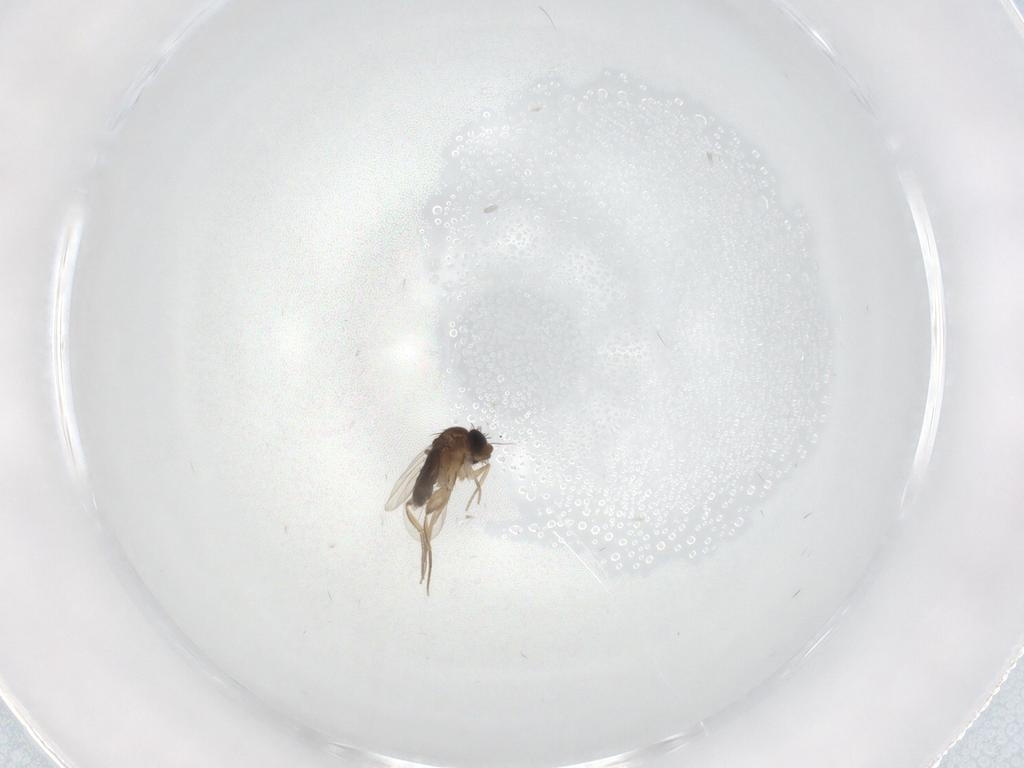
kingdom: Animalia
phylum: Arthropoda
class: Insecta
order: Diptera
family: Phoridae
